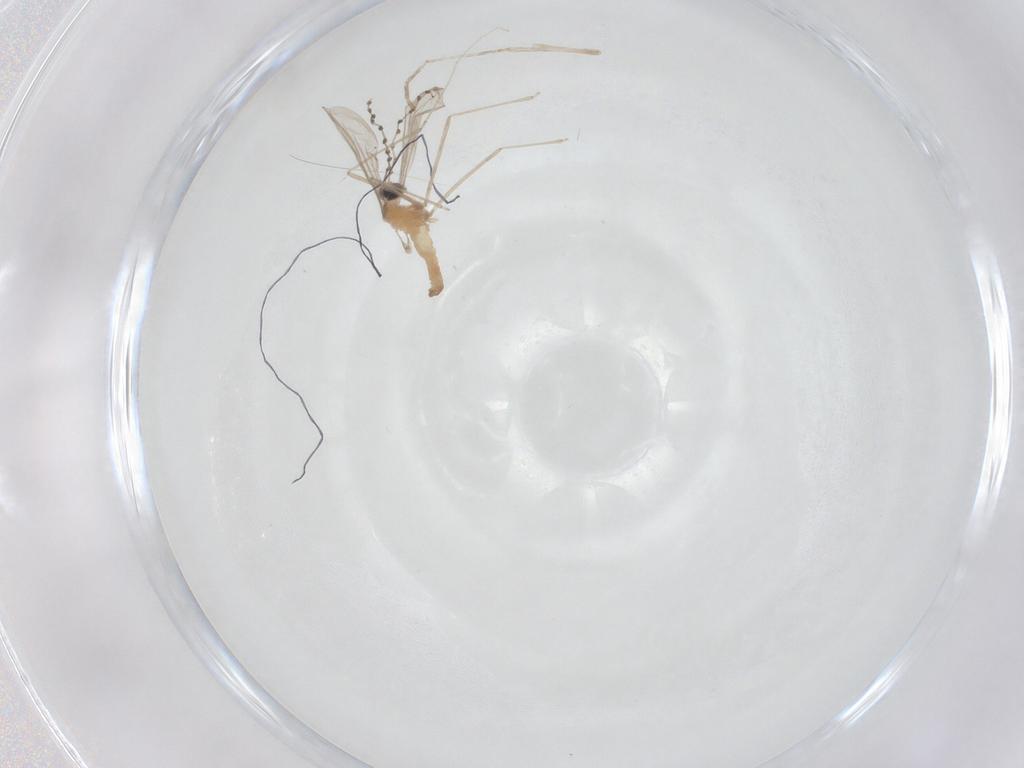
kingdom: Animalia
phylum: Arthropoda
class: Insecta
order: Diptera
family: Cecidomyiidae
